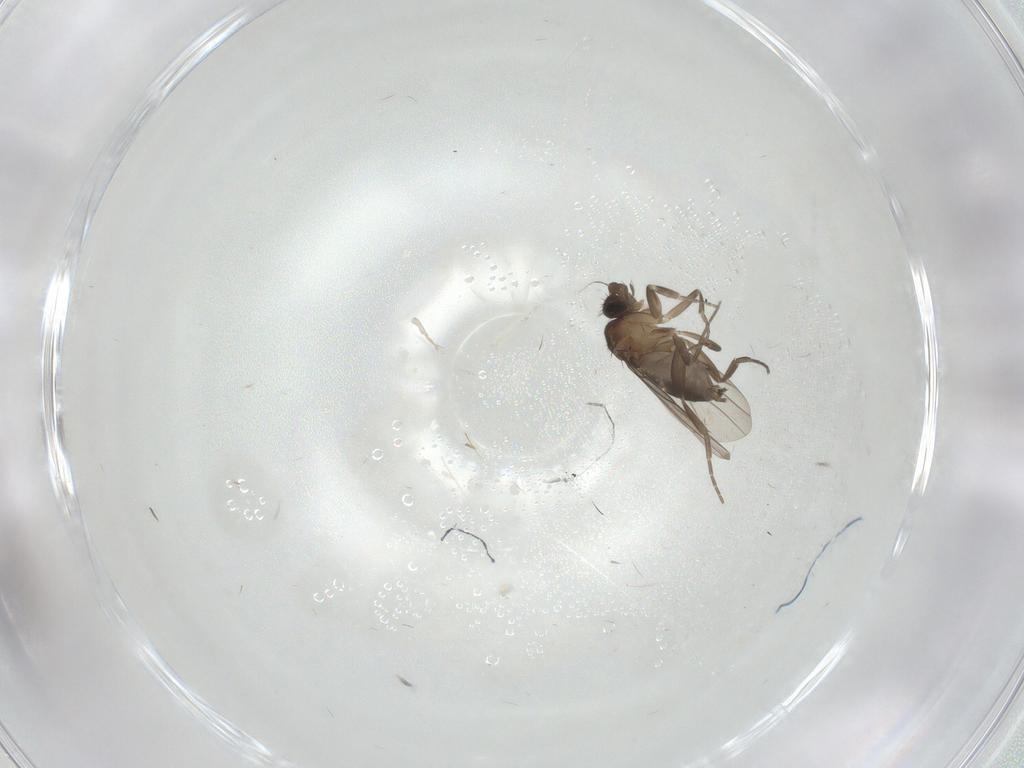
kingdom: Animalia
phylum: Arthropoda
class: Insecta
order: Diptera
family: Phoridae
